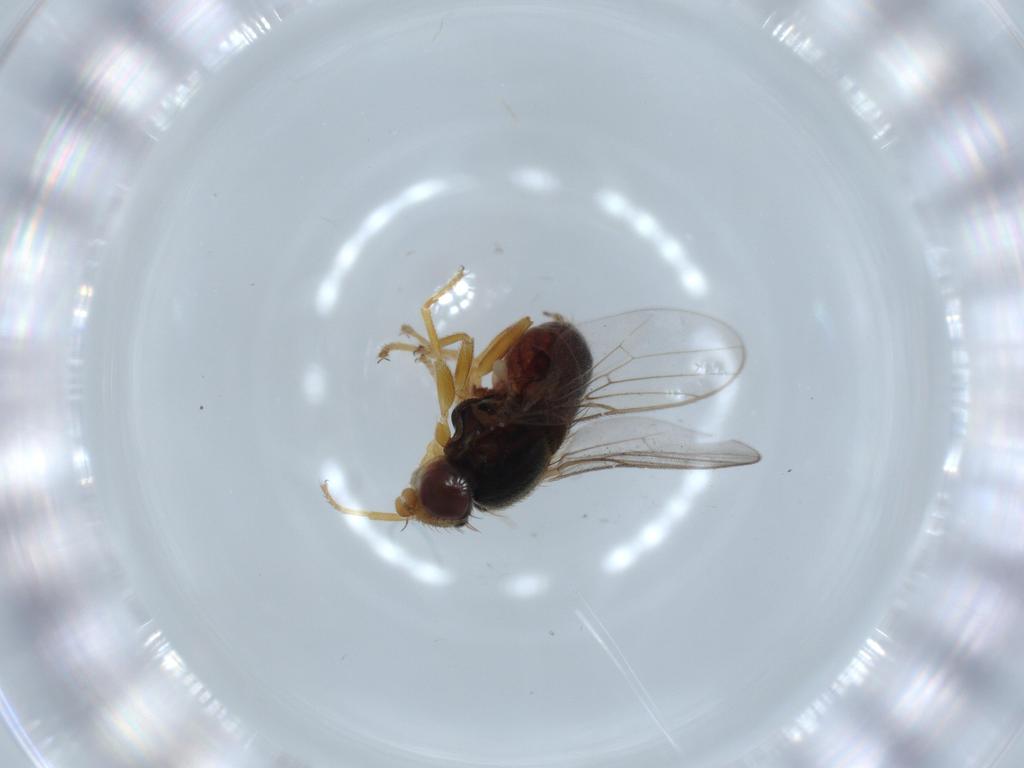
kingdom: Animalia
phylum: Arthropoda
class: Insecta
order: Diptera
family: Chloropidae
